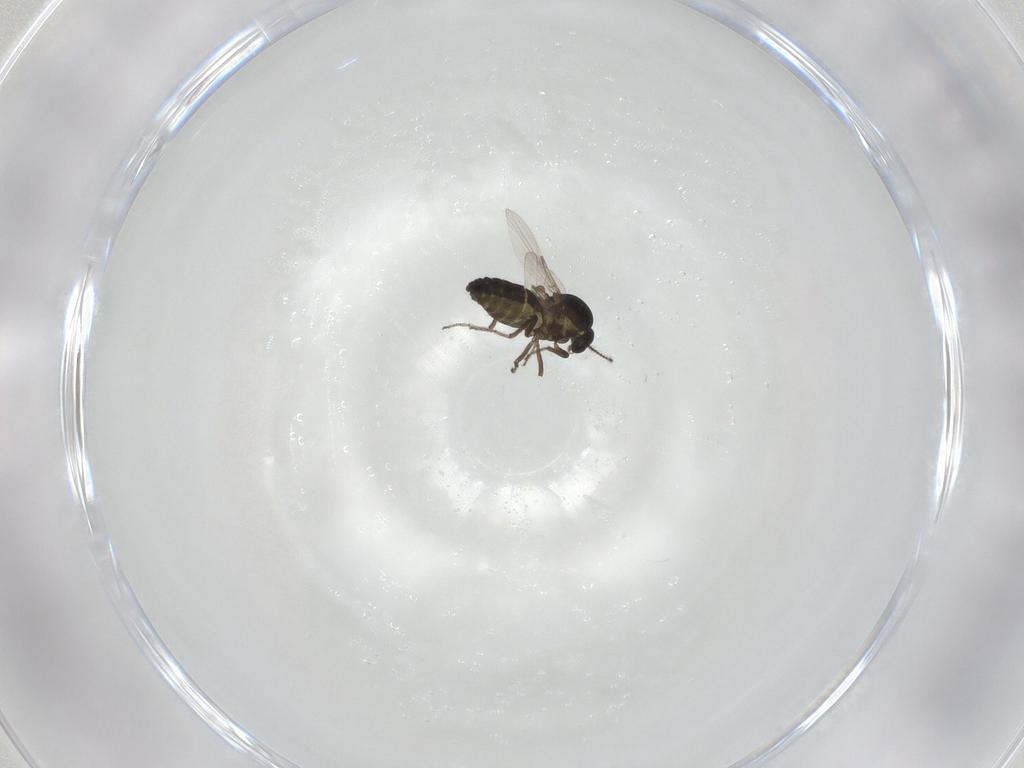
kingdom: Animalia
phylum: Arthropoda
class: Insecta
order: Diptera
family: Ceratopogonidae
